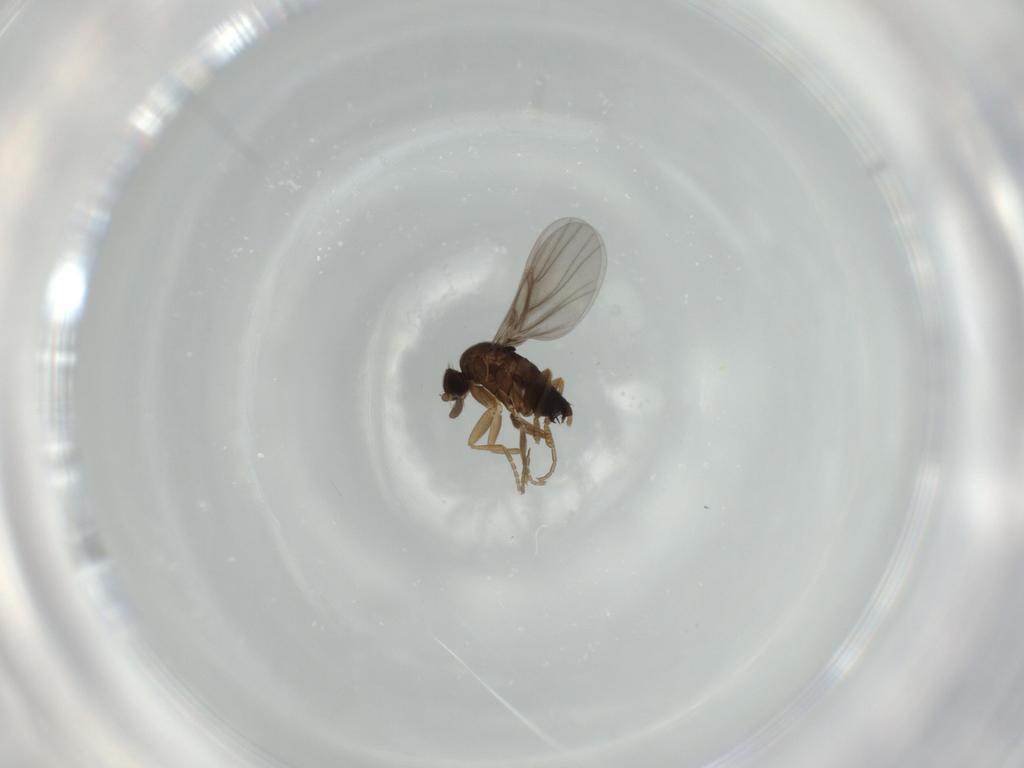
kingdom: Animalia
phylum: Arthropoda
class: Insecta
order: Diptera
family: Phoridae
